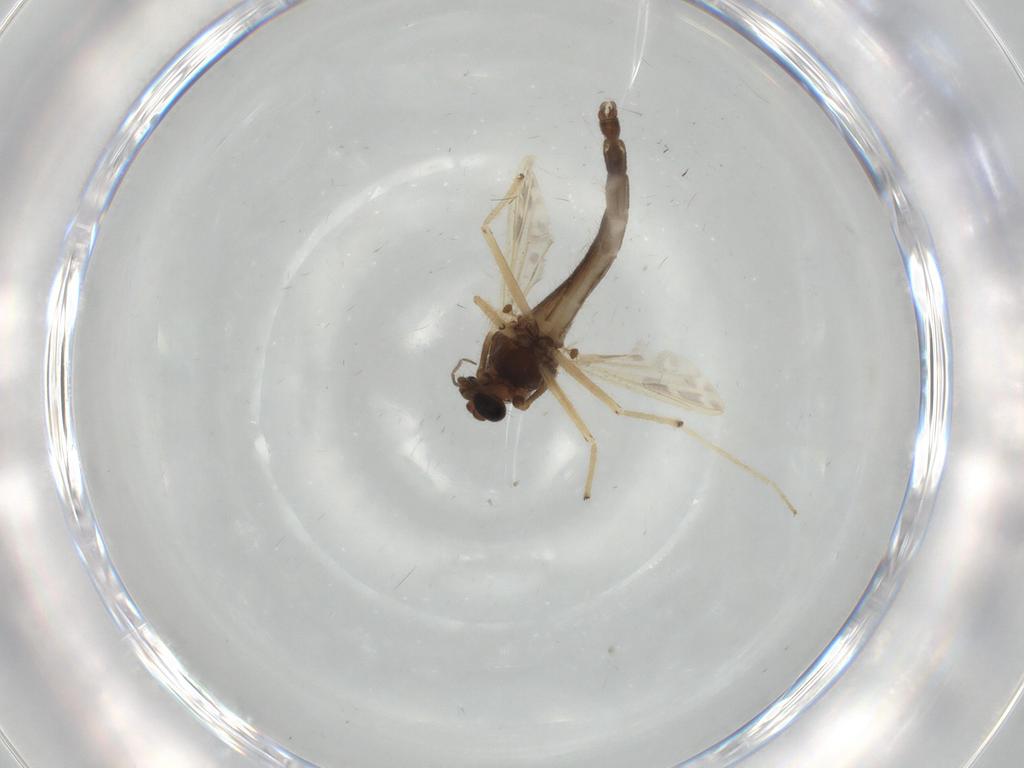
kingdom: Animalia
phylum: Arthropoda
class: Insecta
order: Diptera
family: Chironomidae
